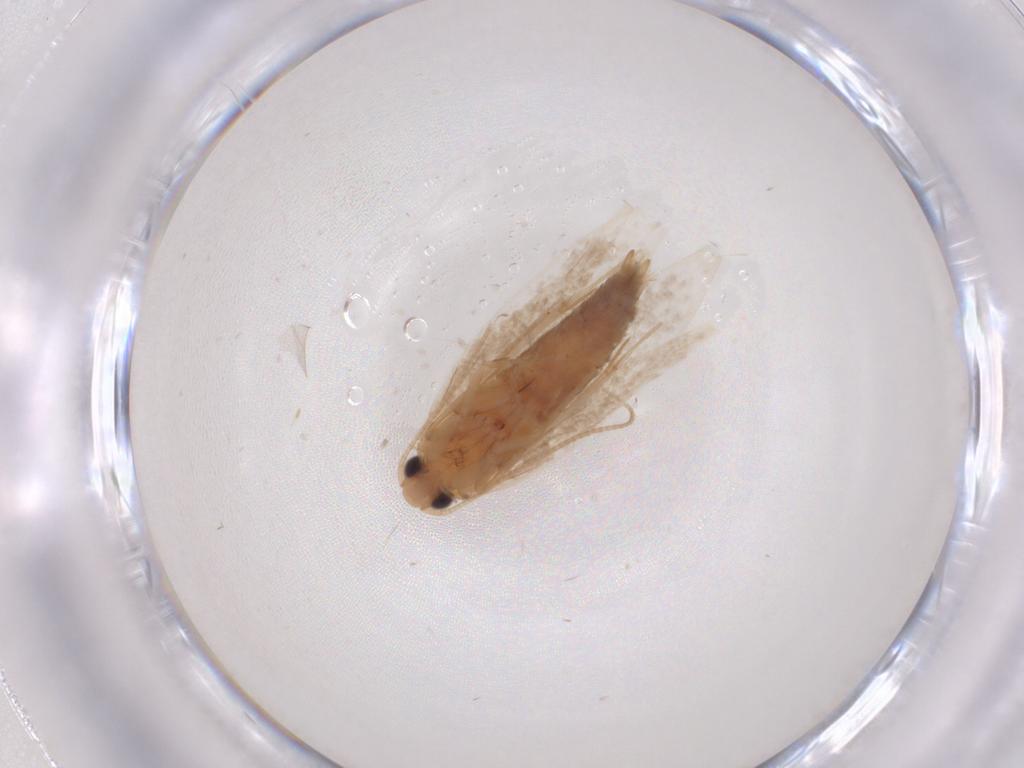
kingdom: Animalia
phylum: Arthropoda
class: Insecta
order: Lepidoptera
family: Tineidae
